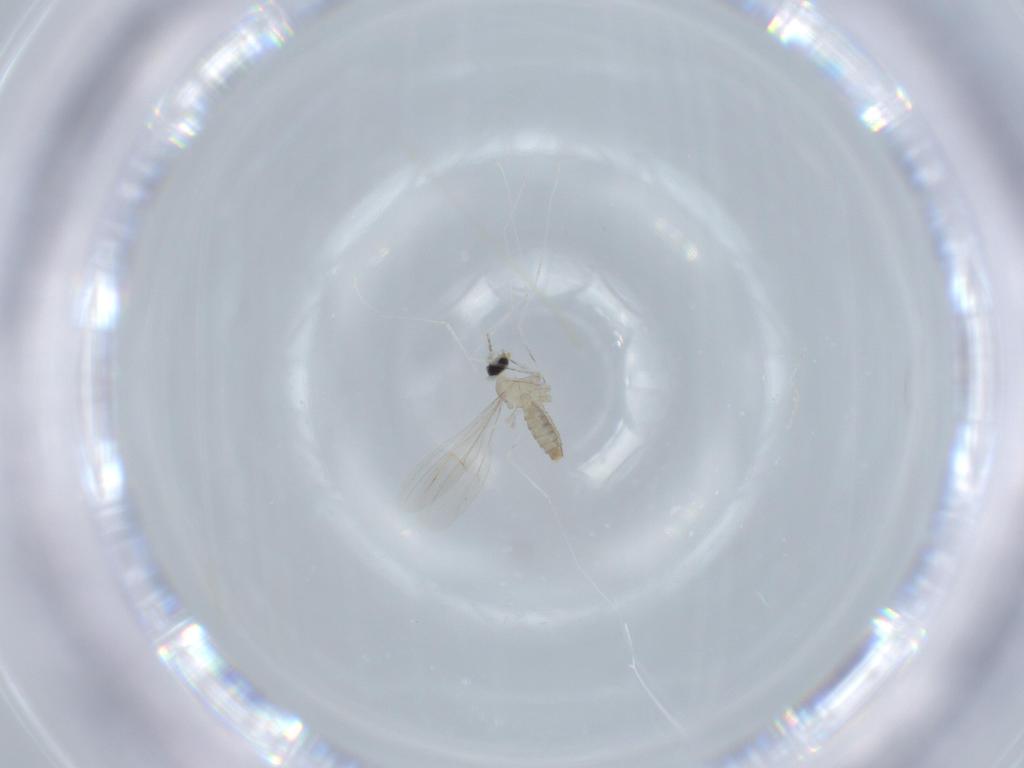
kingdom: Animalia
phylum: Arthropoda
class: Insecta
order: Diptera
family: Cecidomyiidae
